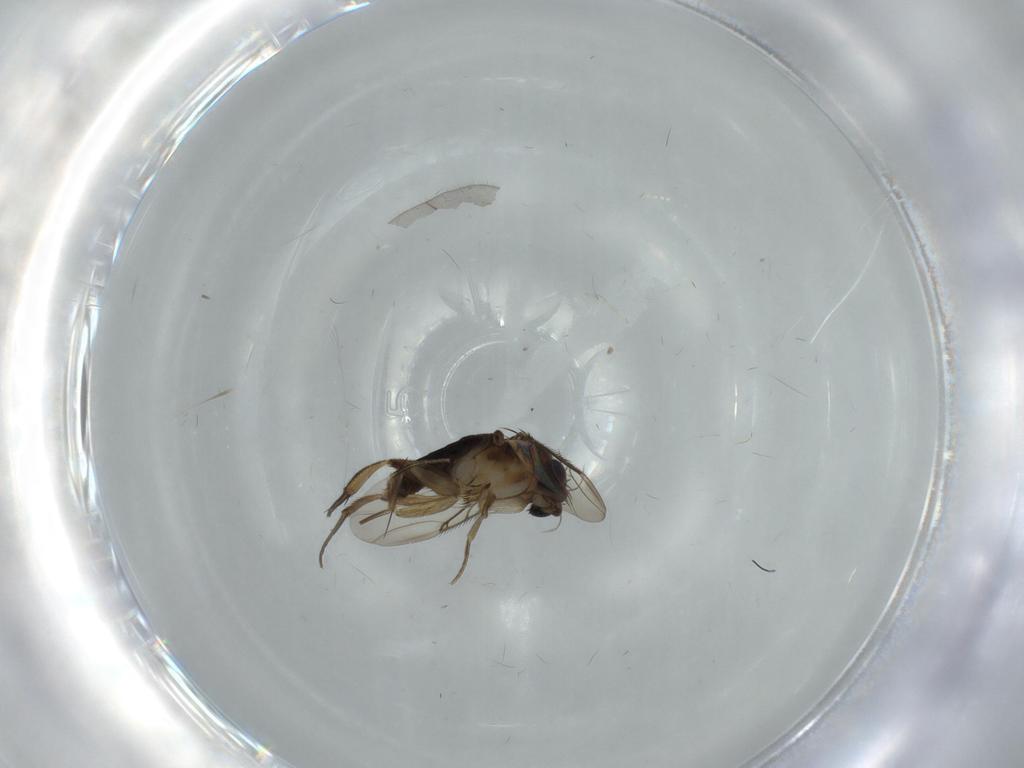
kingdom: Animalia
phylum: Arthropoda
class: Insecta
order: Diptera
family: Phoridae
